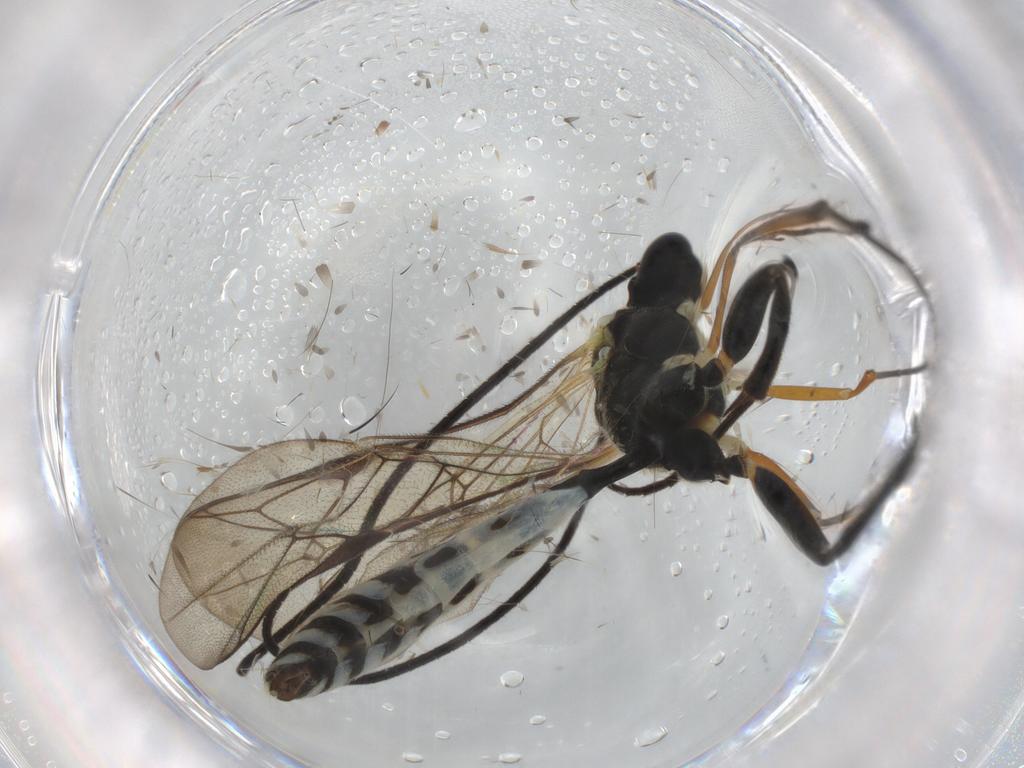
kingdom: Animalia
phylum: Arthropoda
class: Insecta
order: Hymenoptera
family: Ichneumonidae
